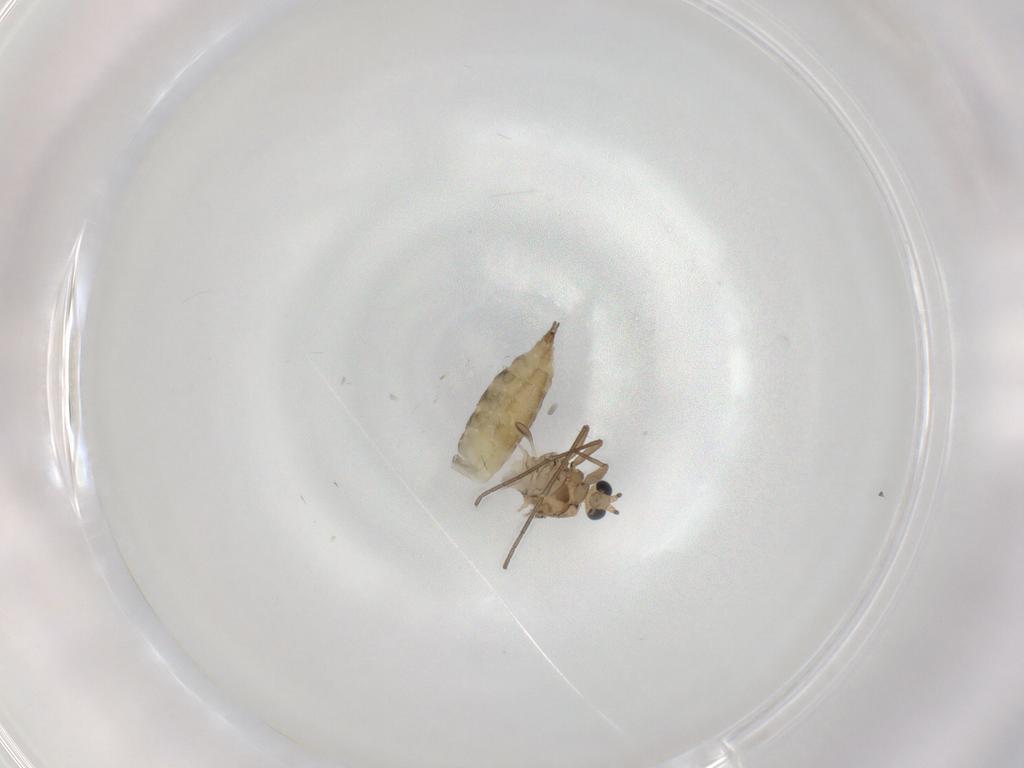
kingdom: Animalia
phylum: Arthropoda
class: Insecta
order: Diptera
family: Sciaridae
